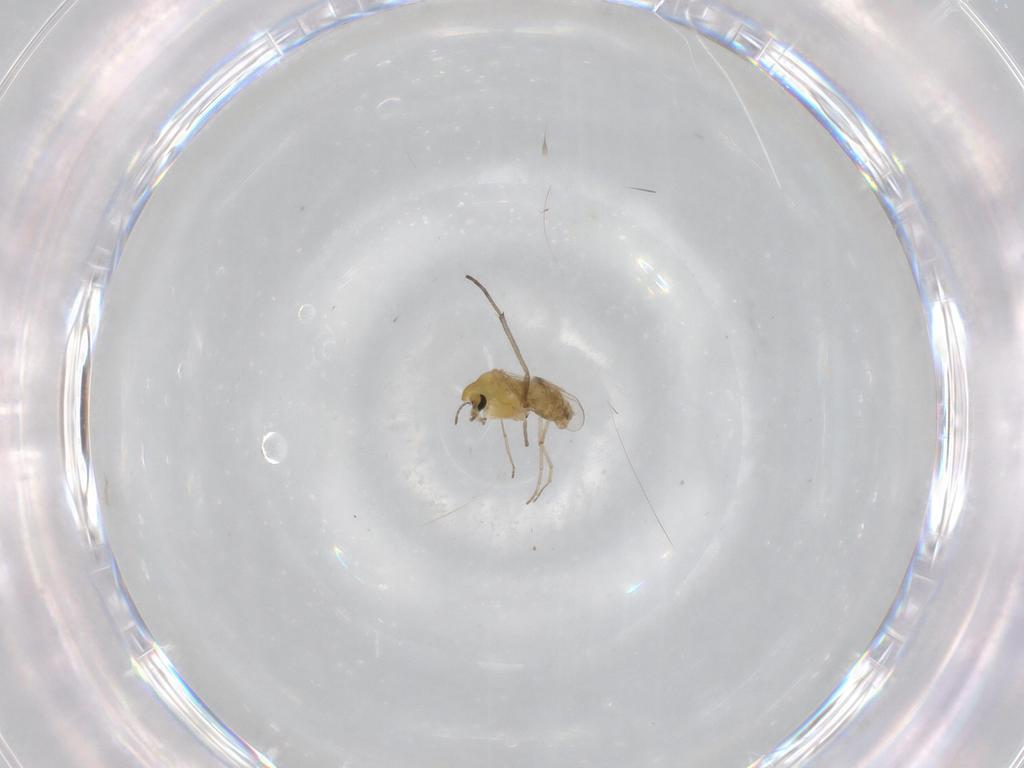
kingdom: Animalia
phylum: Arthropoda
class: Insecta
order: Diptera
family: Chironomidae
